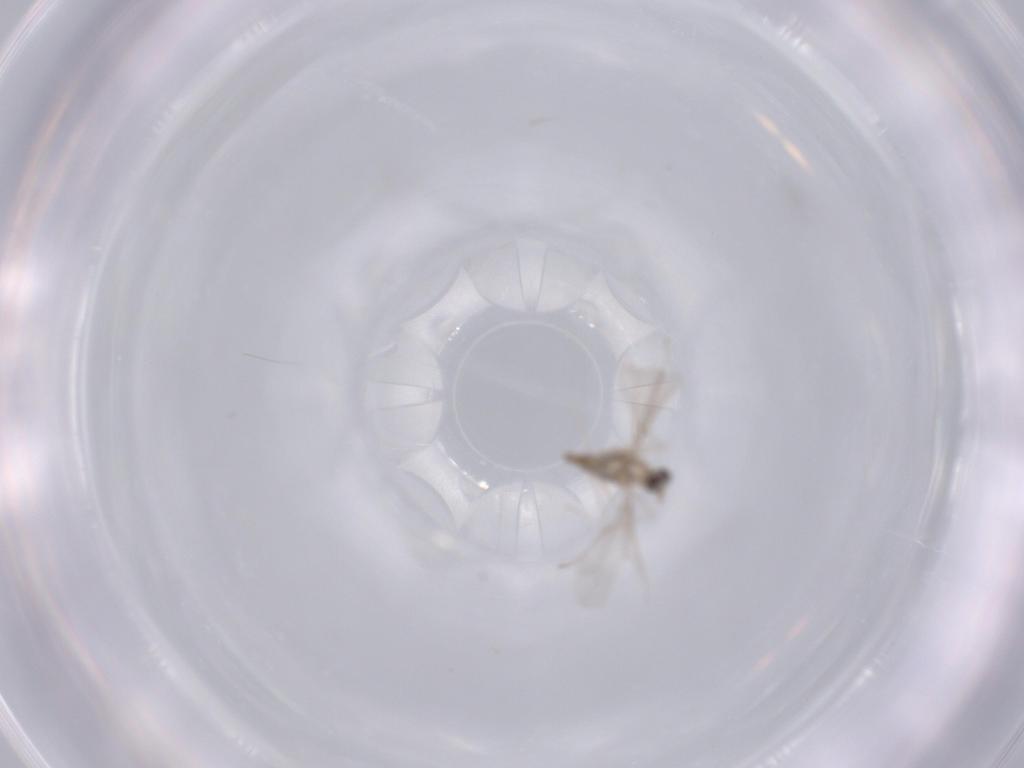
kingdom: Animalia
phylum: Arthropoda
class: Insecta
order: Diptera
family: Cecidomyiidae
